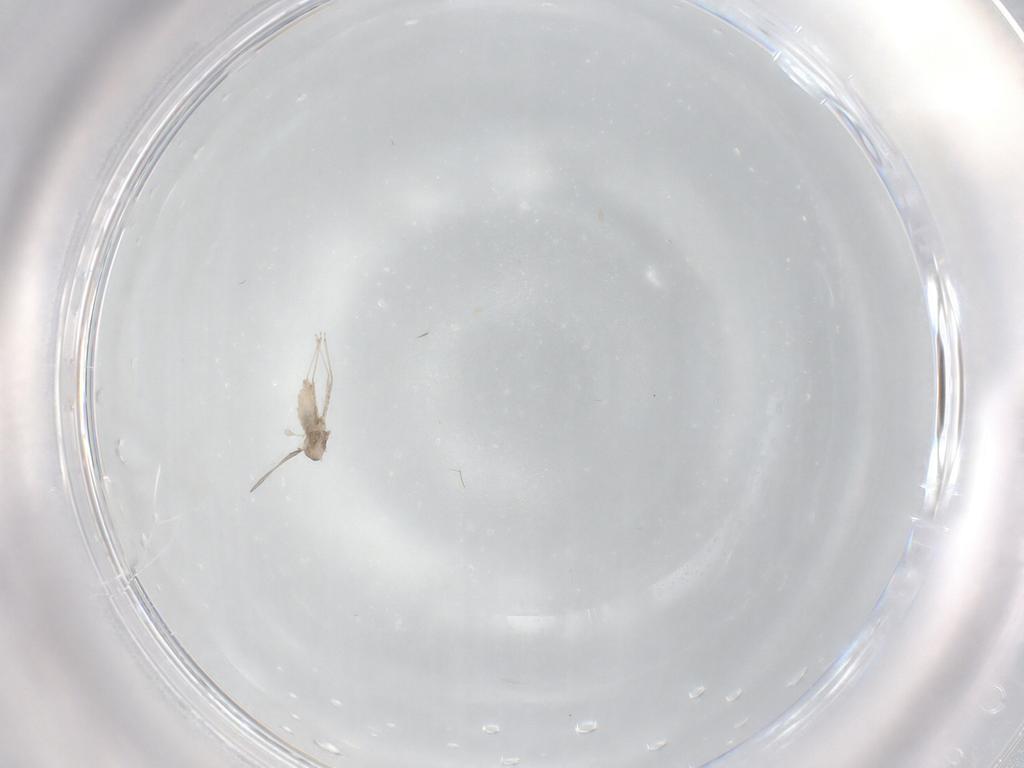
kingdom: Animalia
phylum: Arthropoda
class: Insecta
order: Diptera
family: Cecidomyiidae
